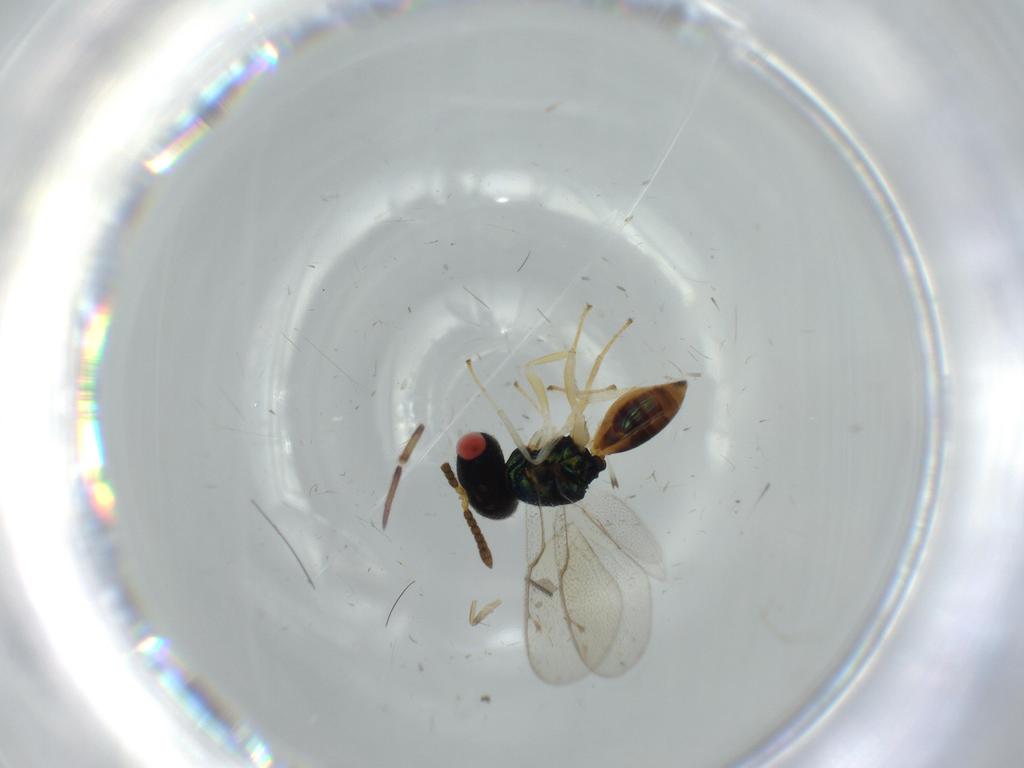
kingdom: Animalia
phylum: Arthropoda
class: Insecta
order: Hymenoptera
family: Pteromalidae
